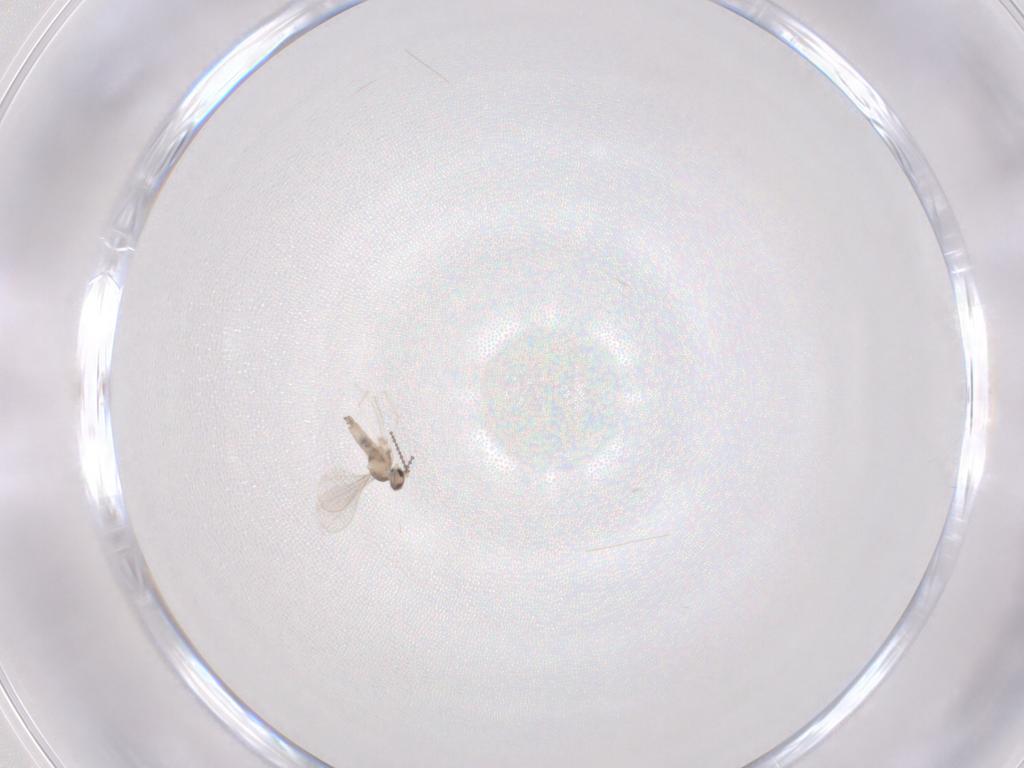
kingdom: Animalia
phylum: Arthropoda
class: Insecta
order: Diptera
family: Cecidomyiidae
